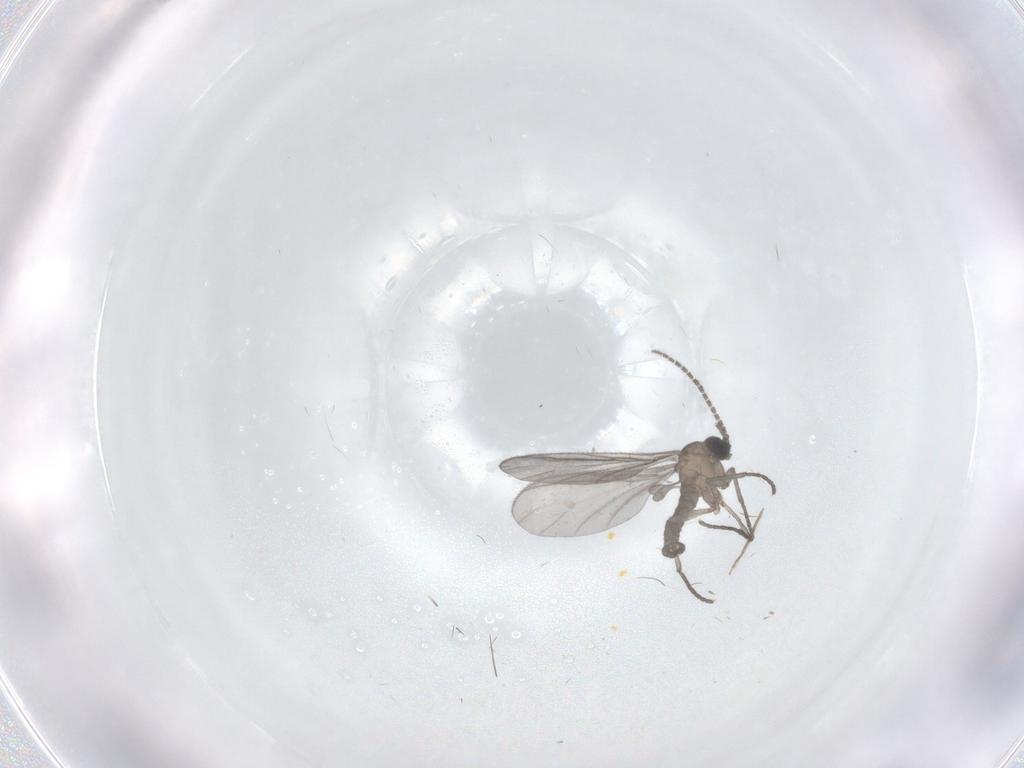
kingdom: Animalia
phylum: Arthropoda
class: Insecta
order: Diptera
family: Sciaridae
